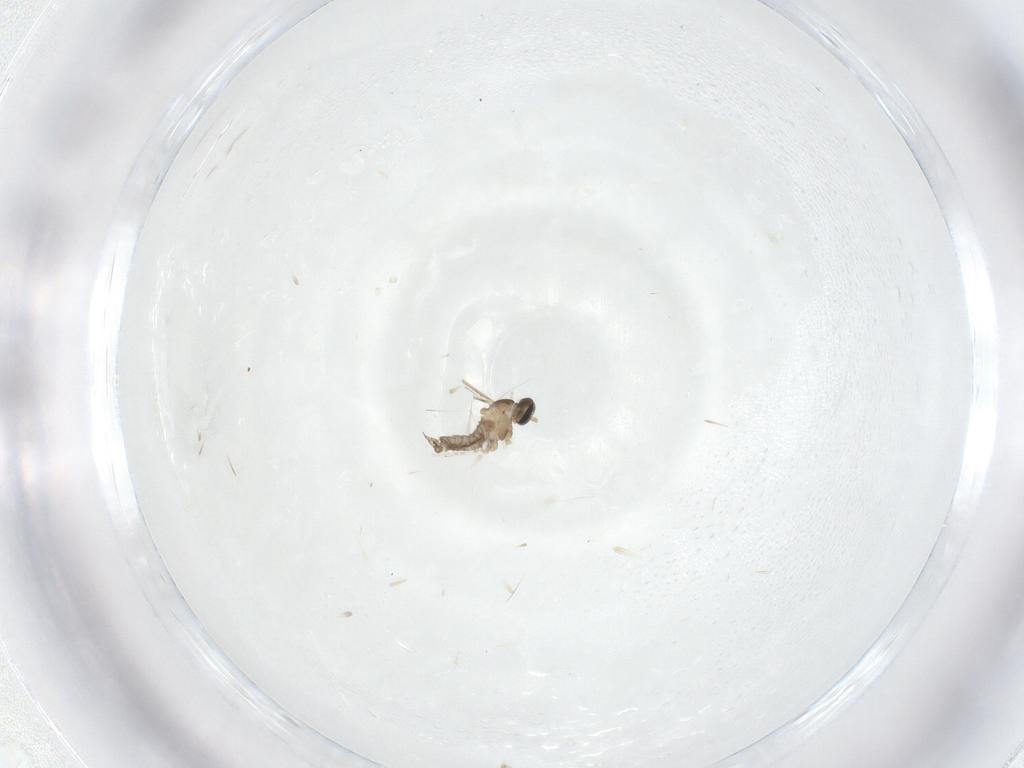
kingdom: Animalia
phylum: Arthropoda
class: Insecta
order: Diptera
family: Cecidomyiidae
